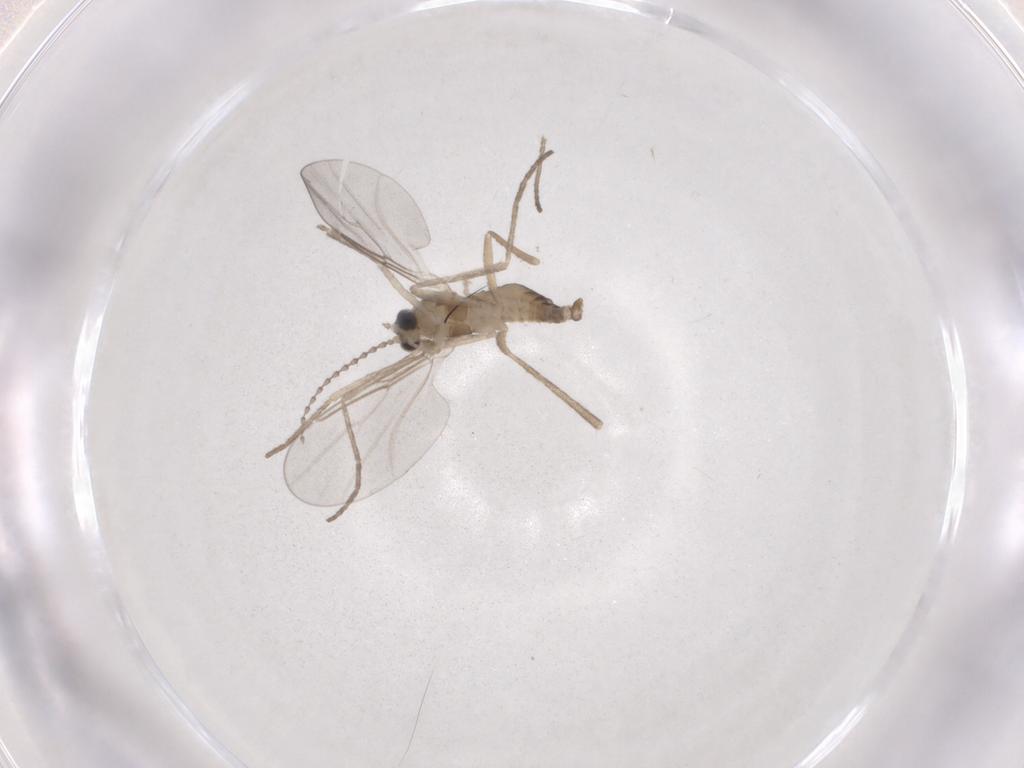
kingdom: Animalia
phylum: Arthropoda
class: Insecta
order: Diptera
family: Cecidomyiidae
